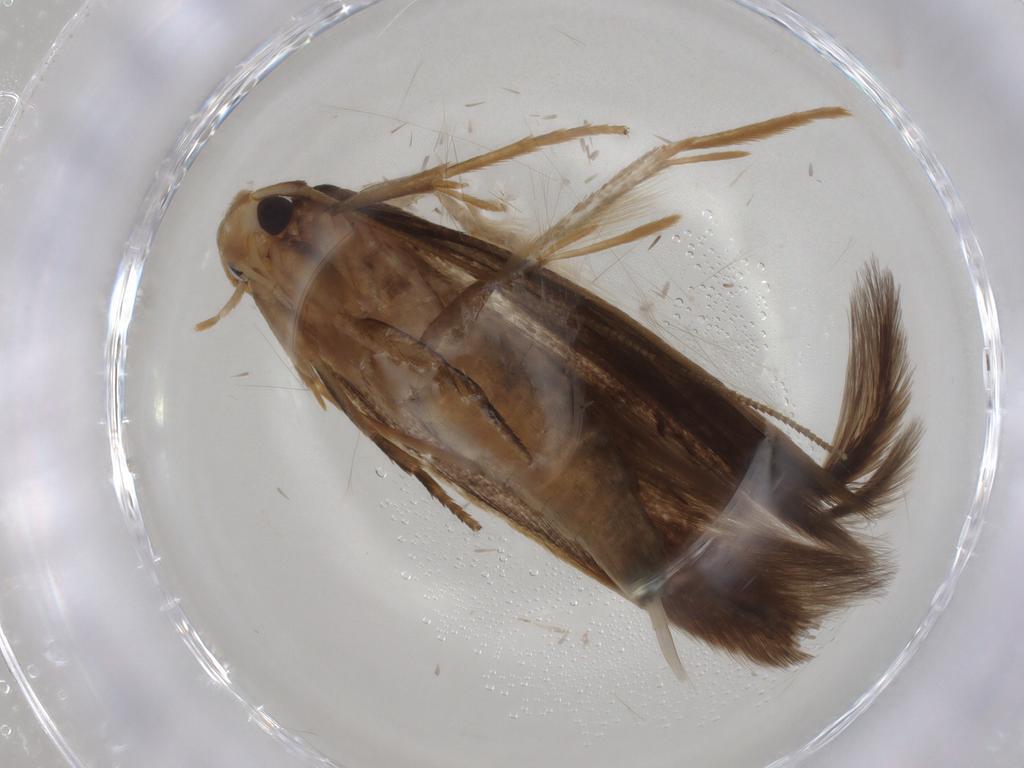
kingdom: Animalia
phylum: Arthropoda
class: Insecta
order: Lepidoptera
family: Tineidae
